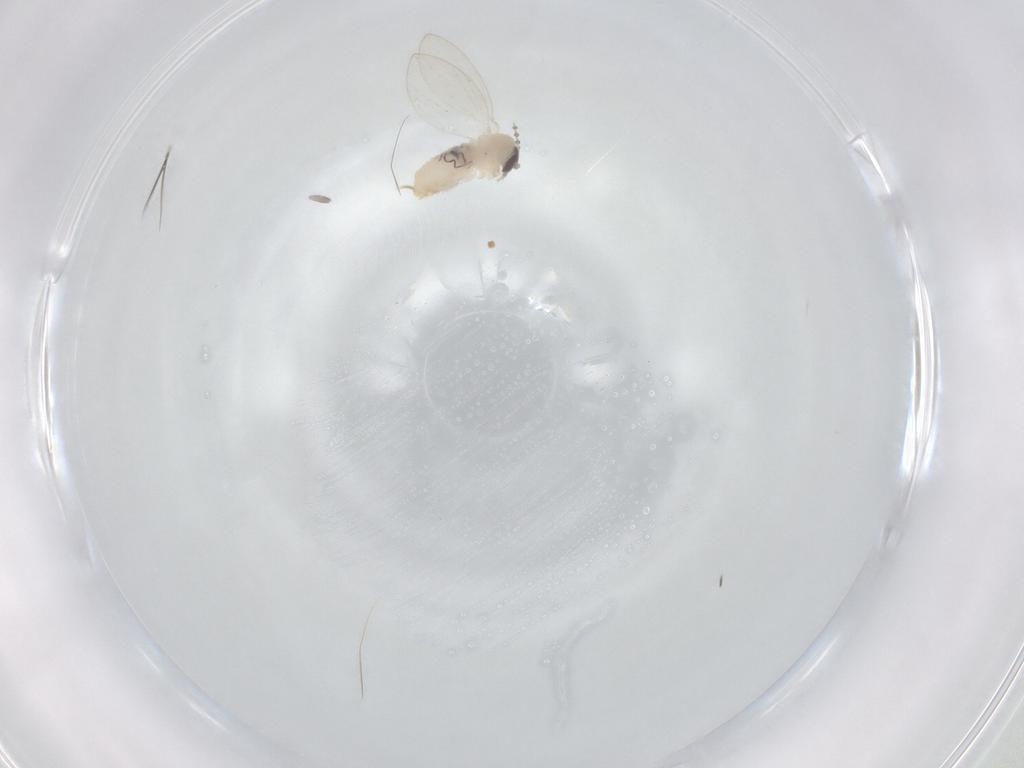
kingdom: Animalia
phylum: Arthropoda
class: Insecta
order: Diptera
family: Psychodidae
